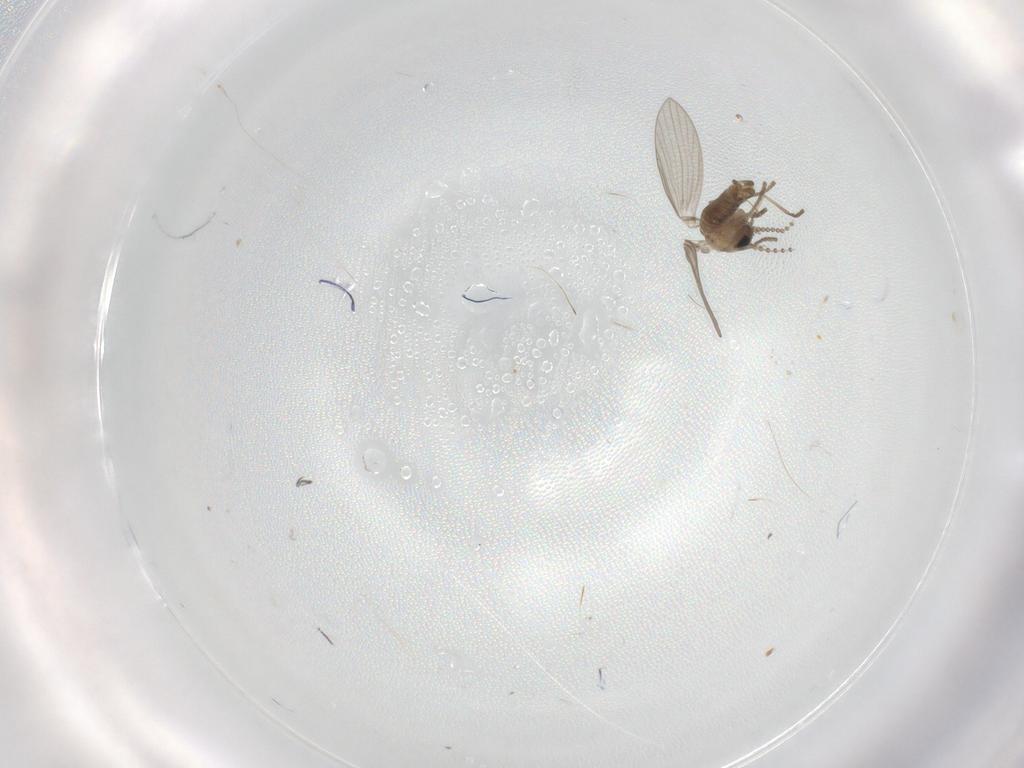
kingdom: Animalia
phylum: Arthropoda
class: Insecta
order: Diptera
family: Psychodidae
